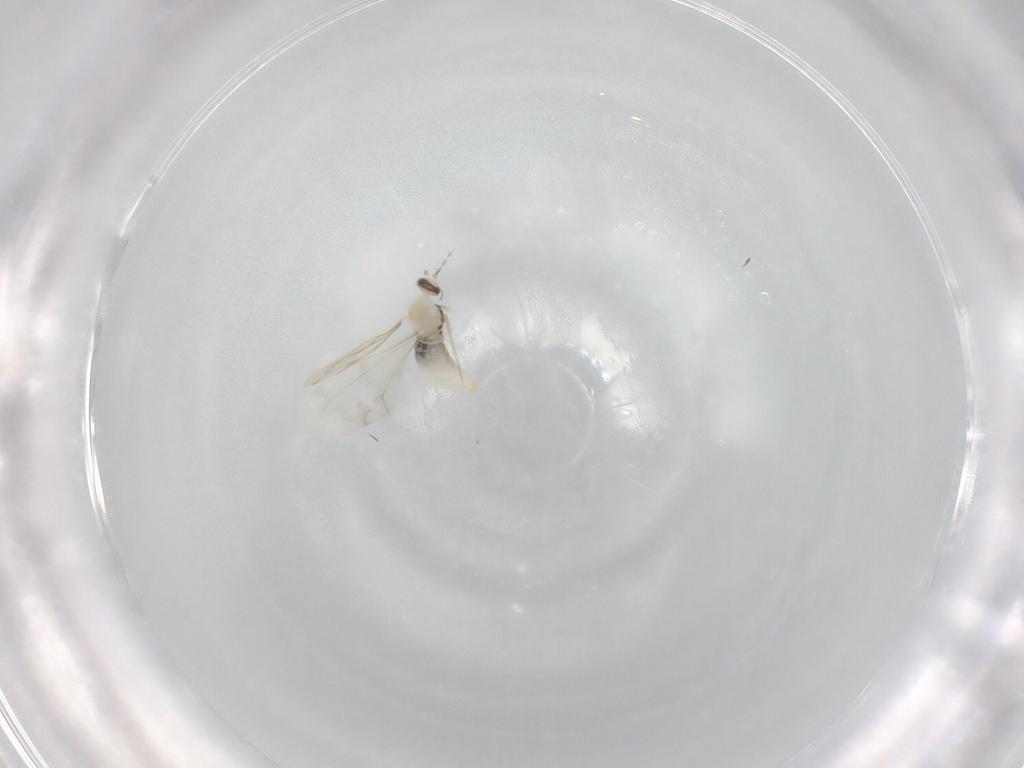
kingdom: Animalia
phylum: Arthropoda
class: Insecta
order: Diptera
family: Cecidomyiidae
